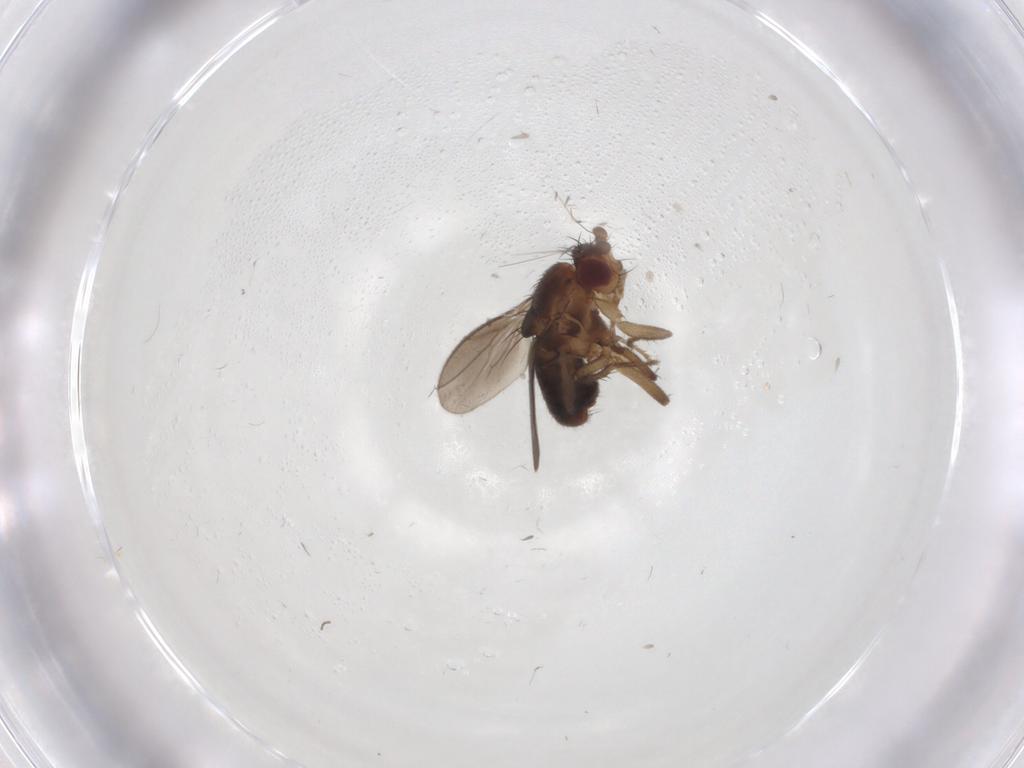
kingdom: Animalia
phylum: Arthropoda
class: Insecta
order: Diptera
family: Sphaeroceridae
